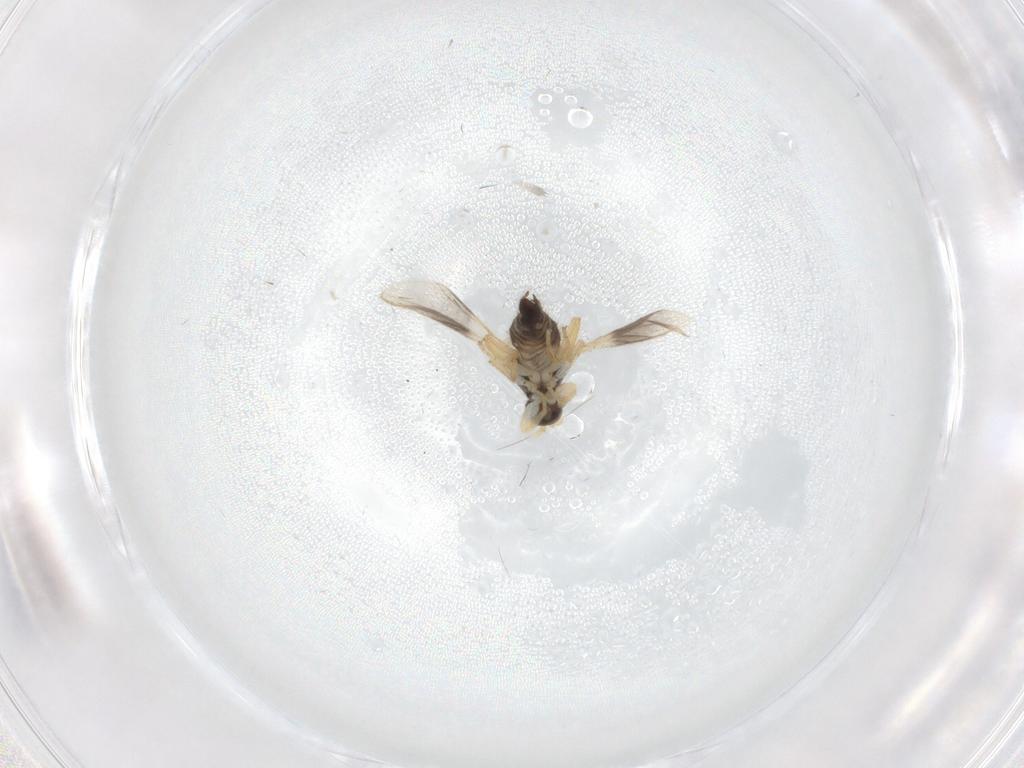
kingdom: Animalia
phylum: Arthropoda
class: Insecta
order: Diptera
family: Hybotidae
